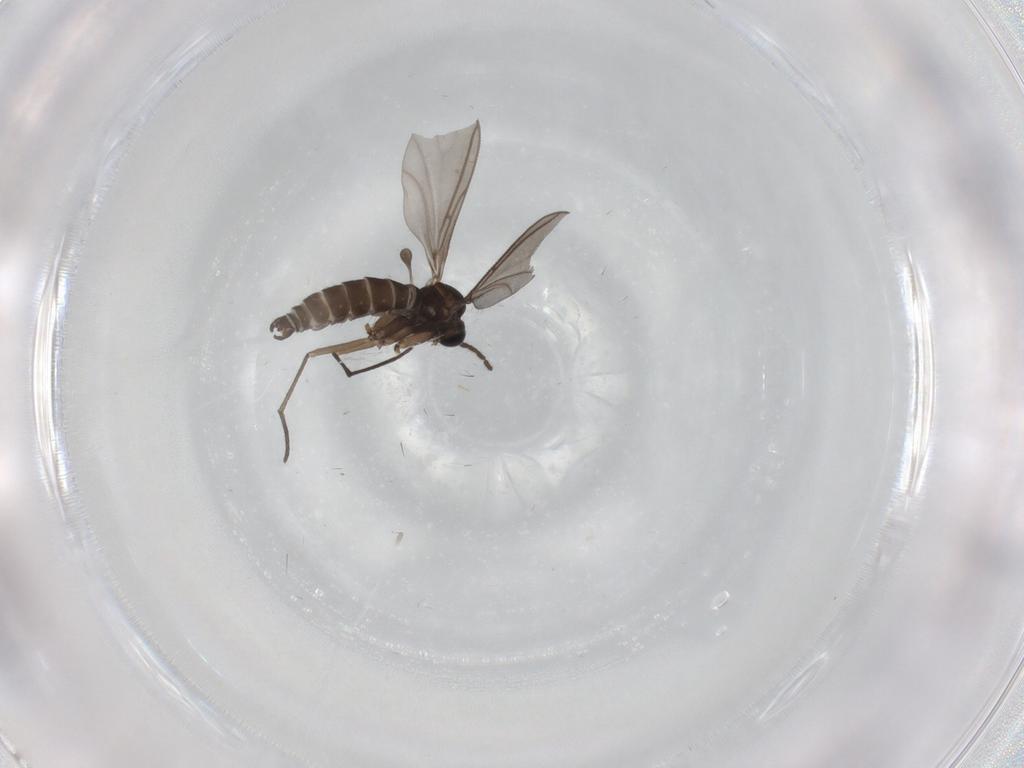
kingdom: Animalia
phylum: Arthropoda
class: Insecta
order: Diptera
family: Sciaridae
